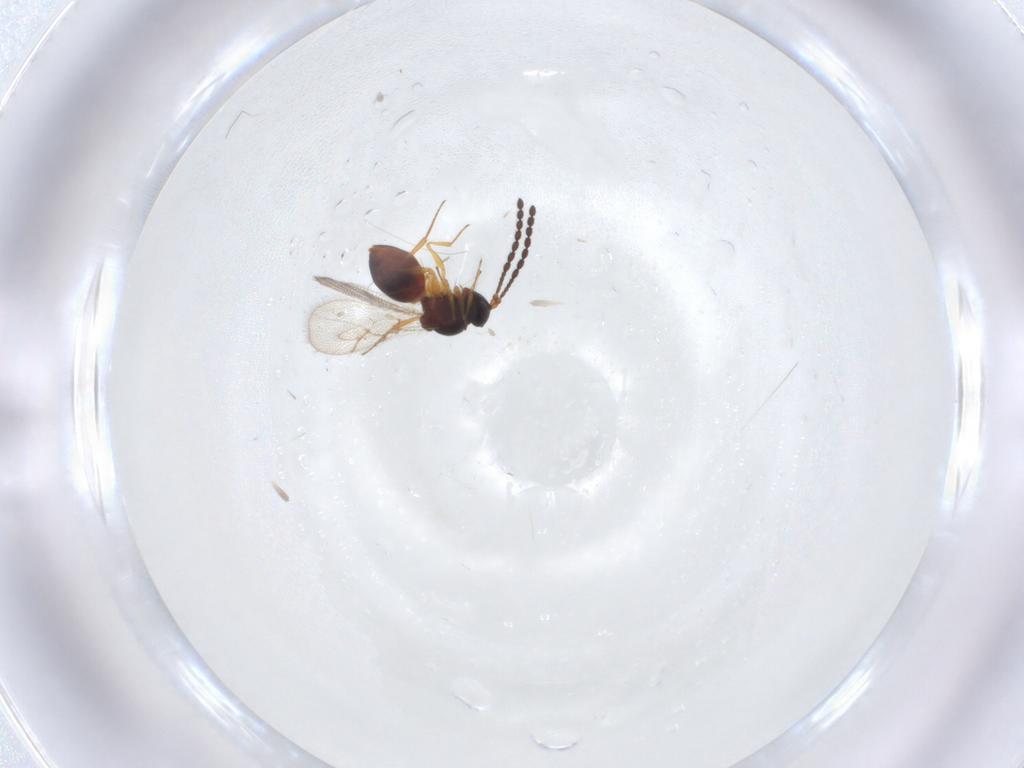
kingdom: Animalia
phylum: Arthropoda
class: Insecta
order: Hymenoptera
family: Figitidae
